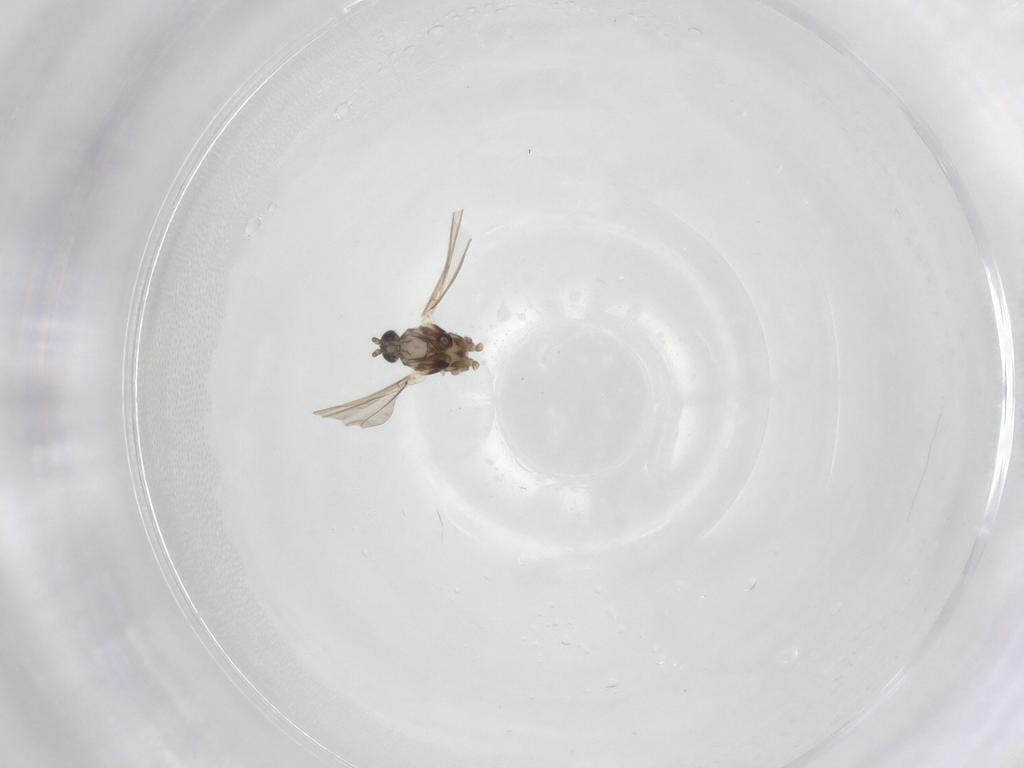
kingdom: Animalia
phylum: Arthropoda
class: Insecta
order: Diptera
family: Cecidomyiidae
